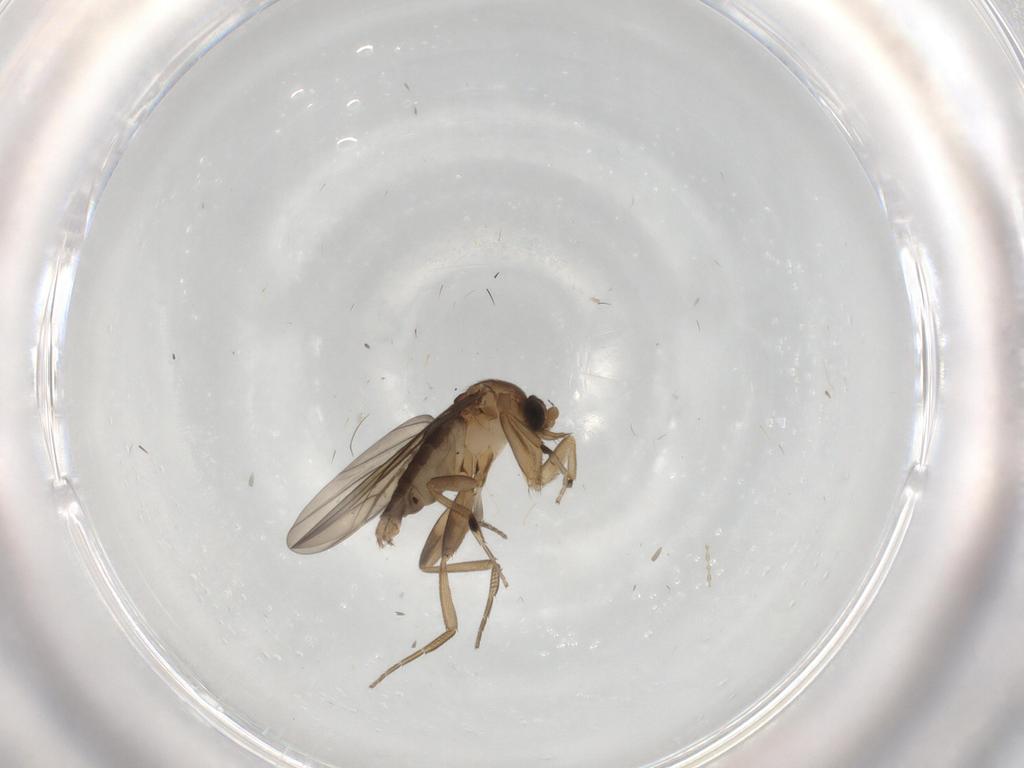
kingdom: Animalia
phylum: Arthropoda
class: Insecta
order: Diptera
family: Phoridae
